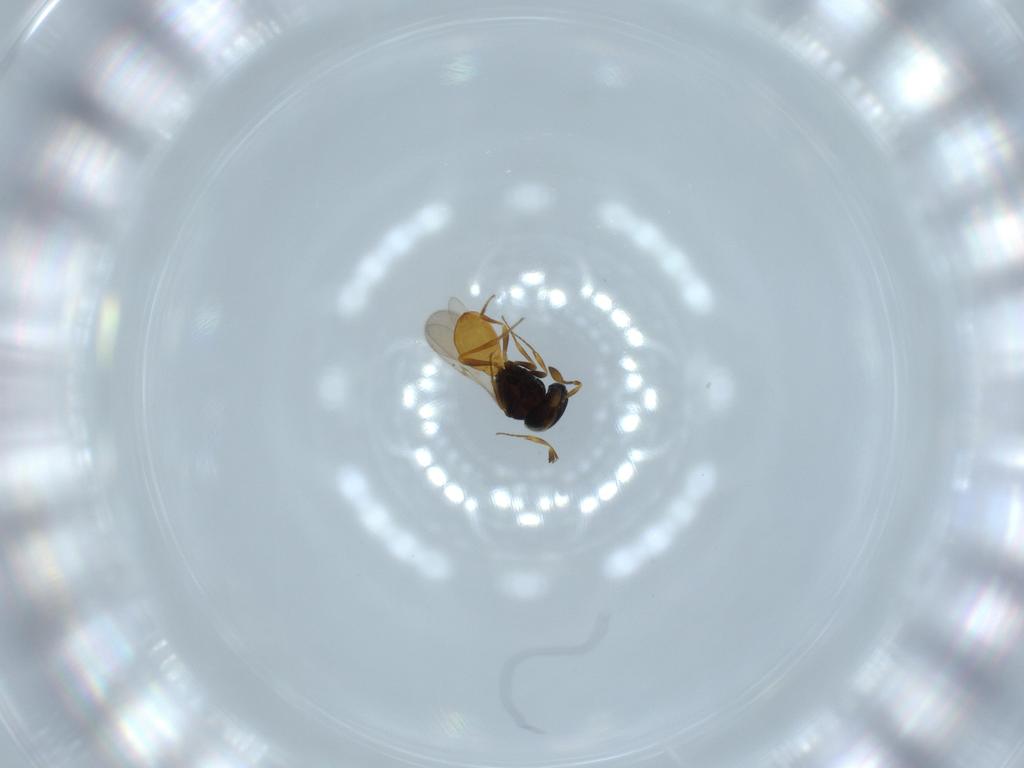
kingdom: Animalia
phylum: Arthropoda
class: Insecta
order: Hymenoptera
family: Scelionidae
